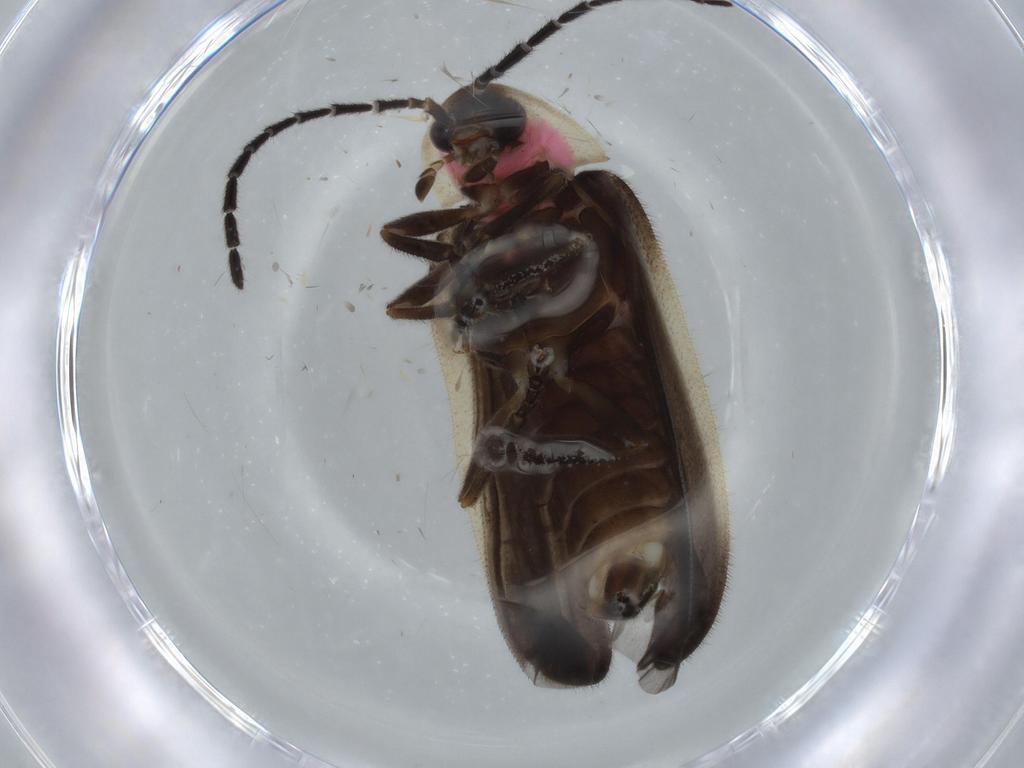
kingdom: Animalia
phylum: Arthropoda
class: Insecta
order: Coleoptera
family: Lampyridae
